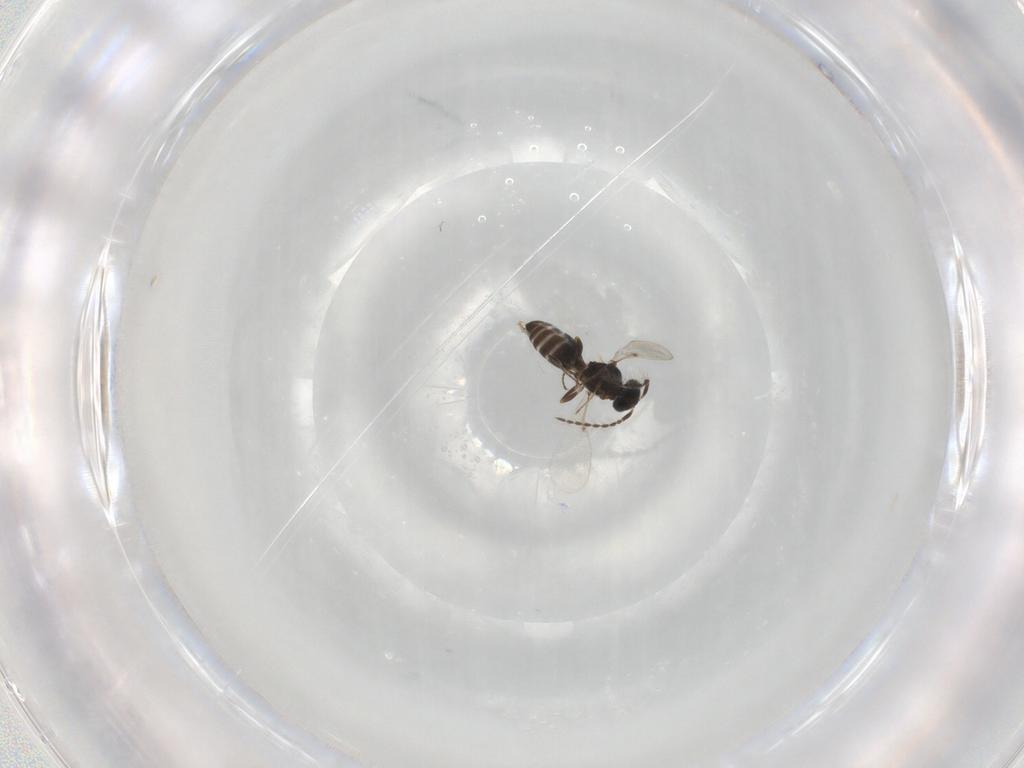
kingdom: Animalia
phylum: Arthropoda
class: Insecta
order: Hymenoptera
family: Platygastridae
